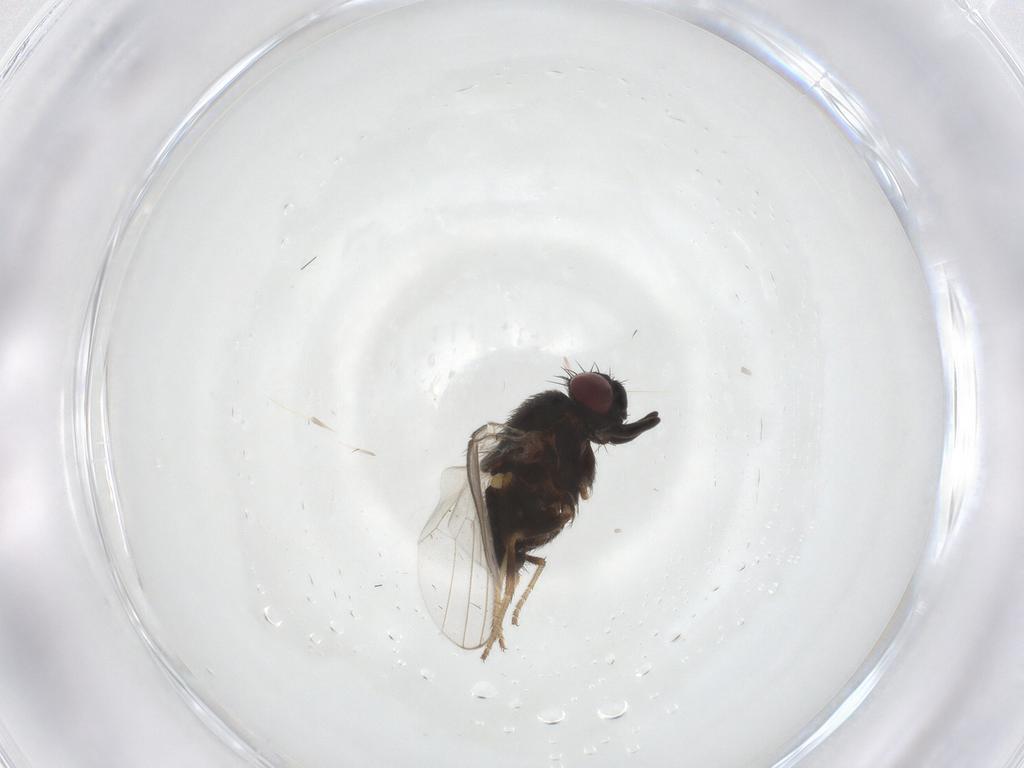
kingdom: Animalia
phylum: Arthropoda
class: Insecta
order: Diptera
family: Milichiidae
